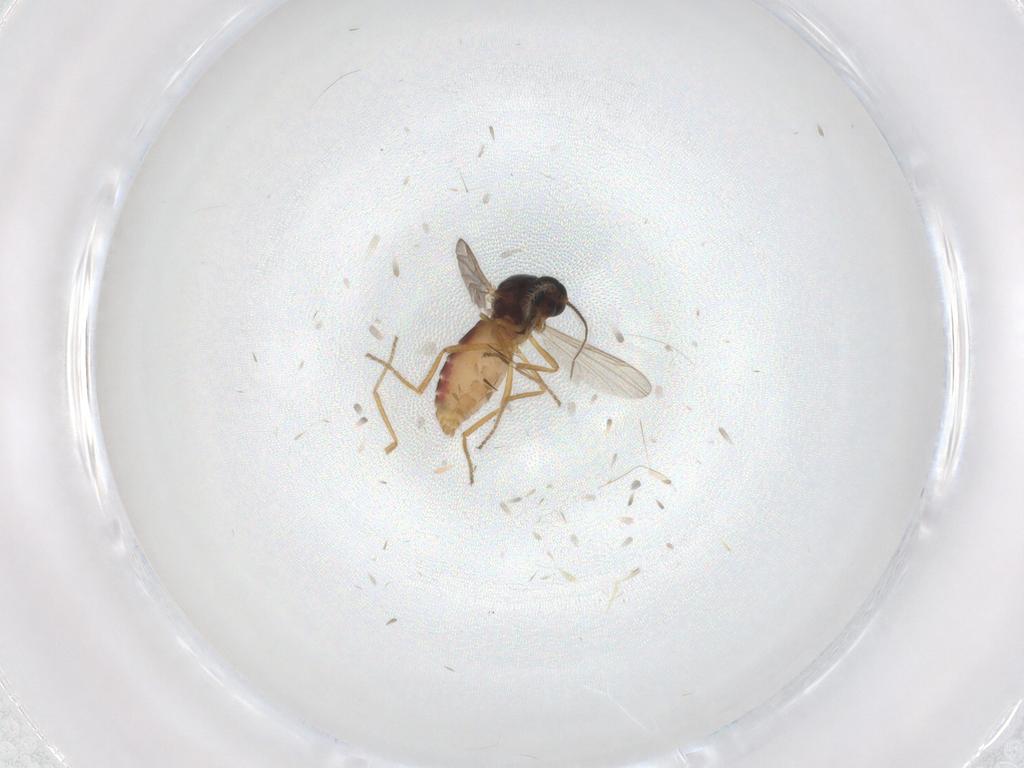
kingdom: Animalia
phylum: Arthropoda
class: Insecta
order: Diptera
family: Ceratopogonidae
